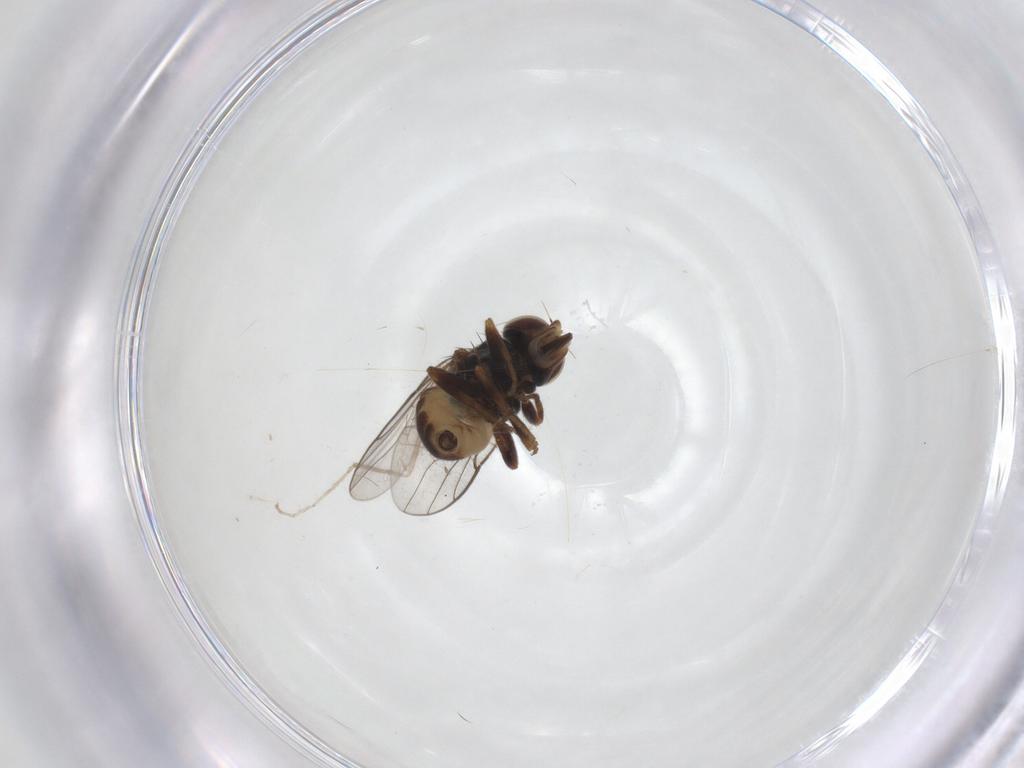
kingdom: Animalia
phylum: Arthropoda
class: Insecta
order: Diptera
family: Chloropidae
